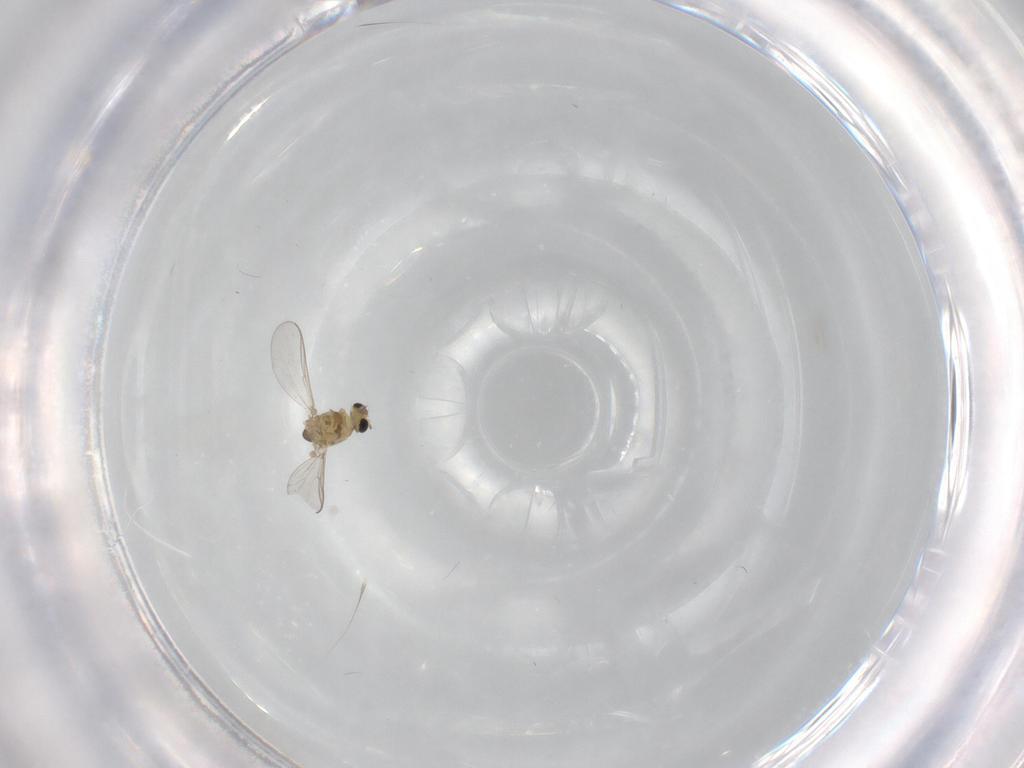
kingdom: Animalia
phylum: Arthropoda
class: Insecta
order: Diptera
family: Chironomidae
